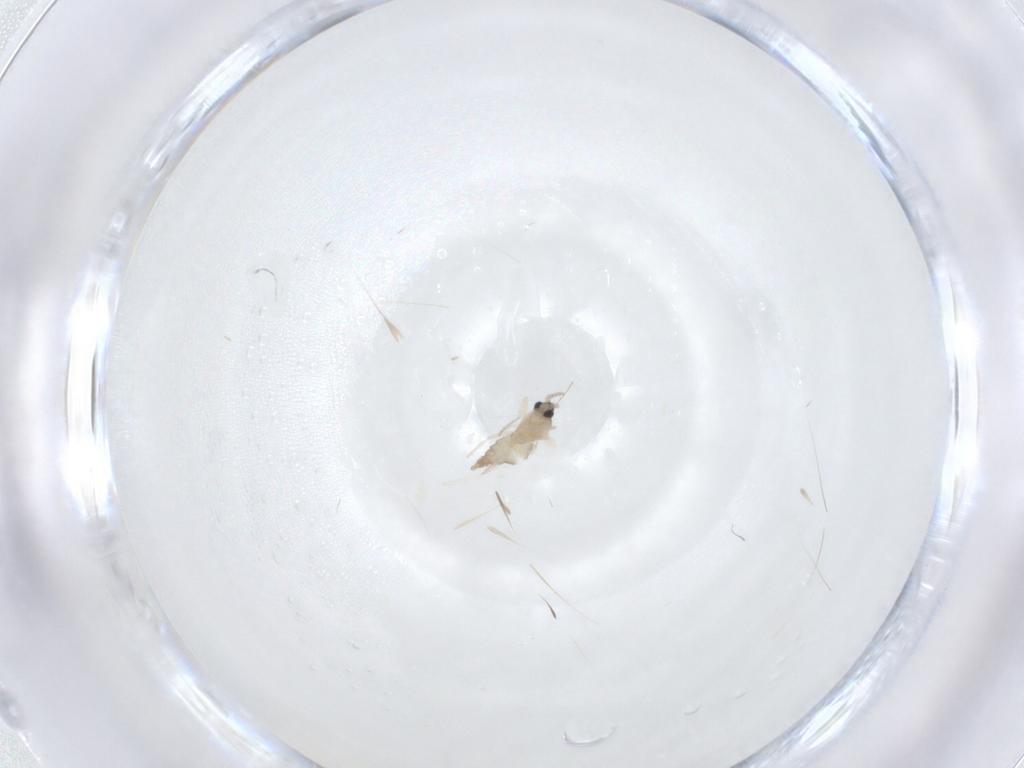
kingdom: Animalia
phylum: Arthropoda
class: Insecta
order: Diptera
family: Cecidomyiidae
